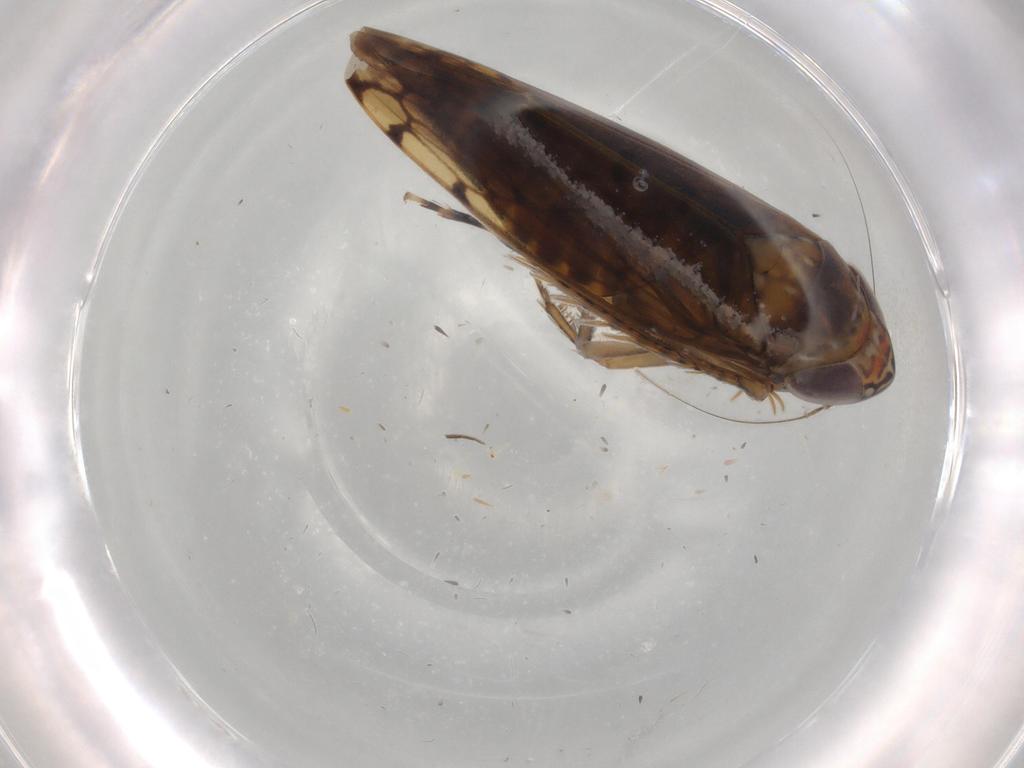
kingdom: Animalia
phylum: Arthropoda
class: Insecta
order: Hemiptera
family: Cicadellidae
